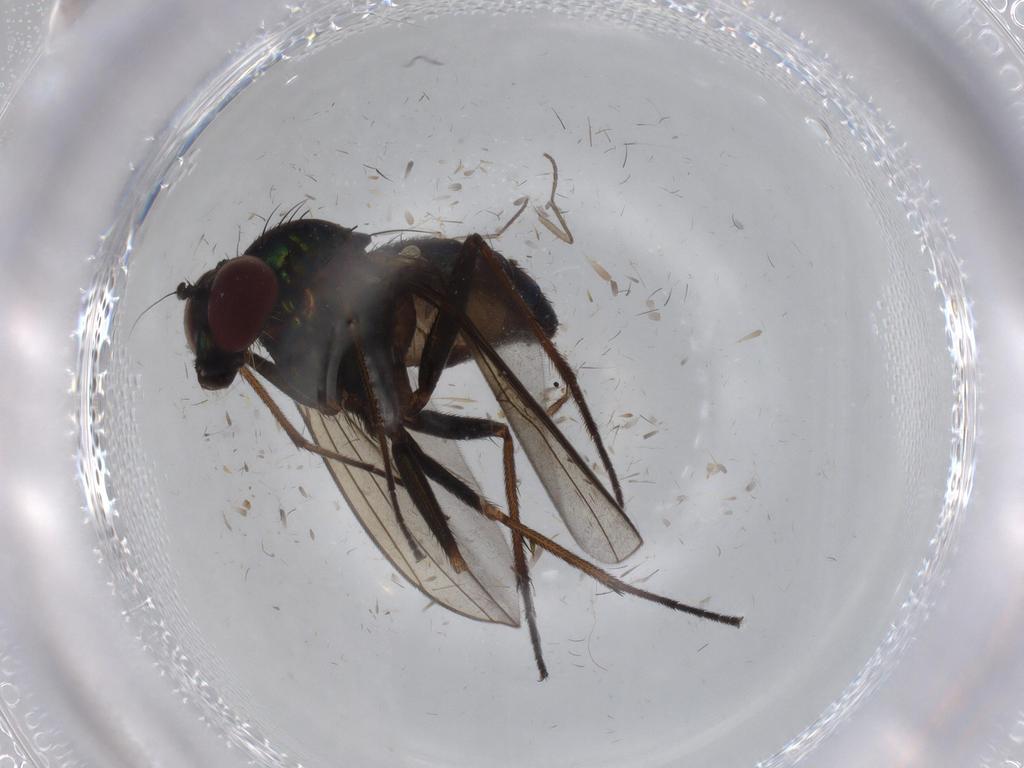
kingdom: Animalia
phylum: Arthropoda
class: Insecta
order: Diptera
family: Dolichopodidae
